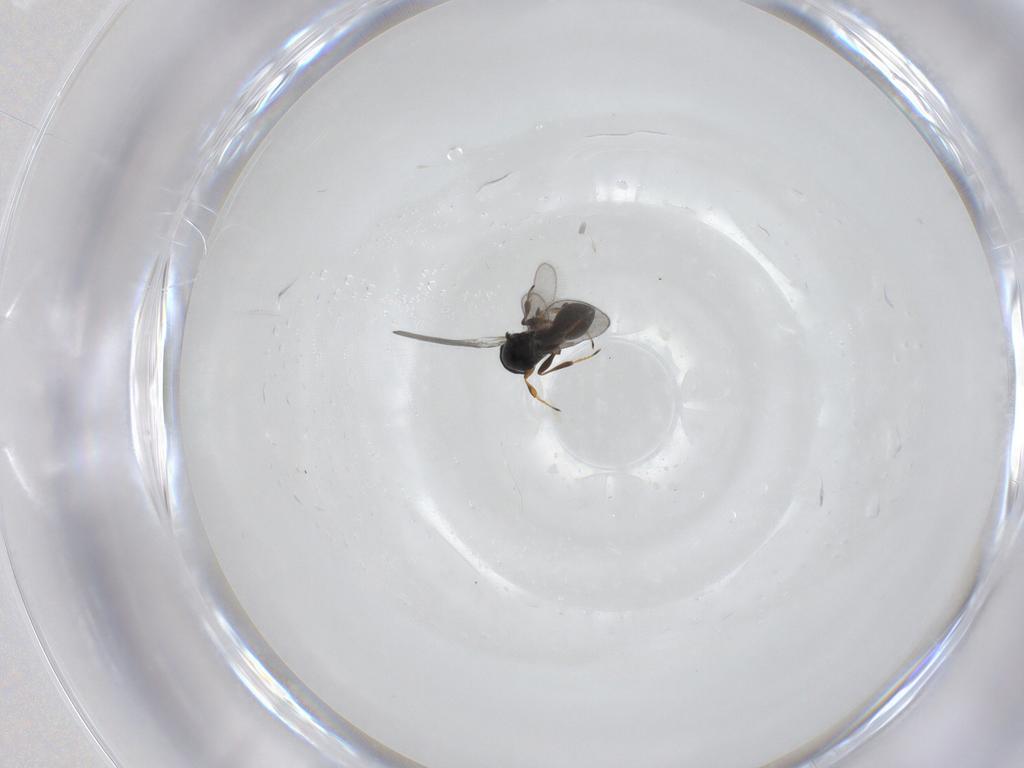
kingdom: Animalia
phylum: Arthropoda
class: Insecta
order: Hymenoptera
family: Platygastridae
